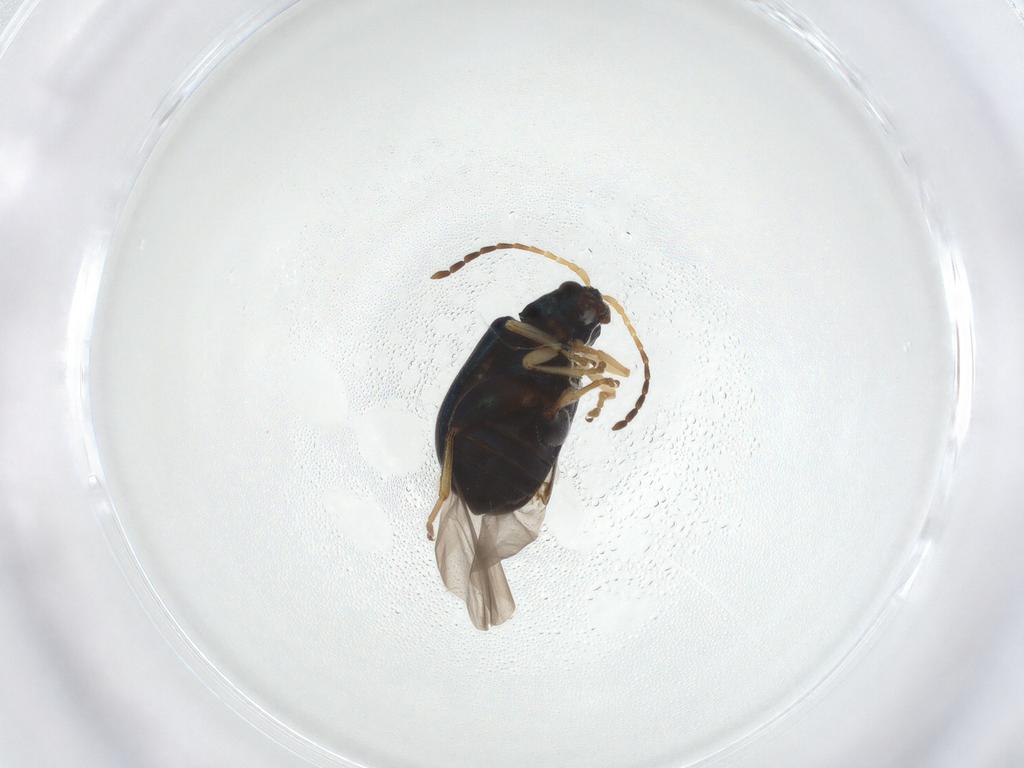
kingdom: Animalia
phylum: Arthropoda
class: Insecta
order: Coleoptera
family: Chrysomelidae
